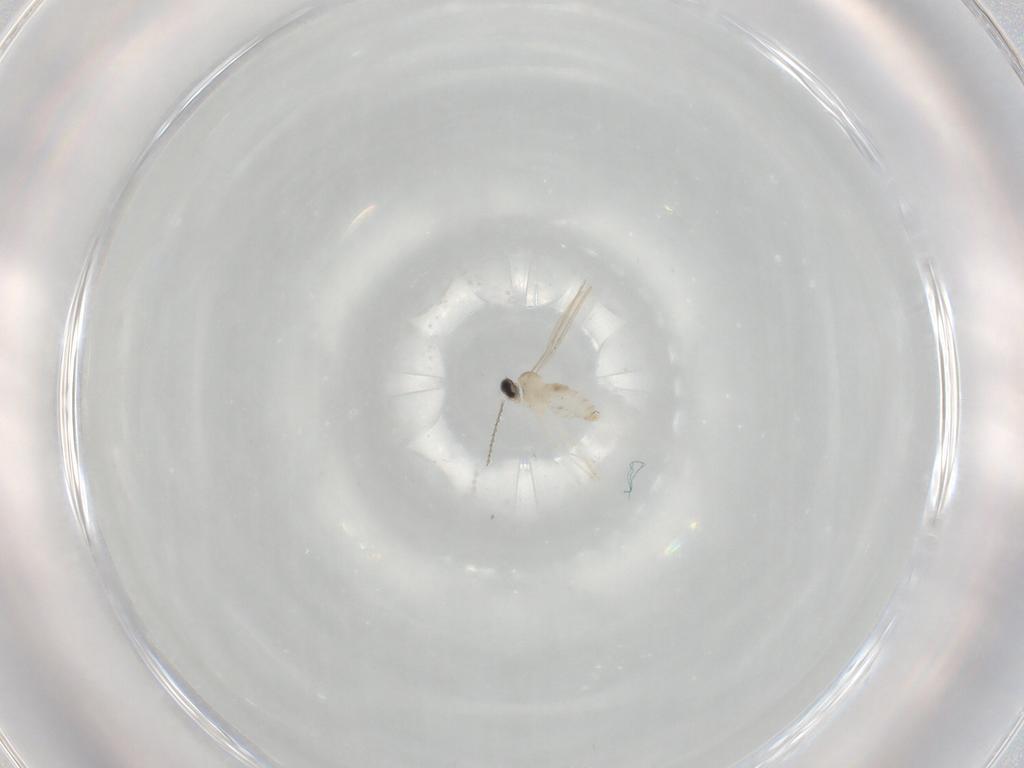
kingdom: Animalia
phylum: Arthropoda
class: Insecta
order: Diptera
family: Cecidomyiidae
